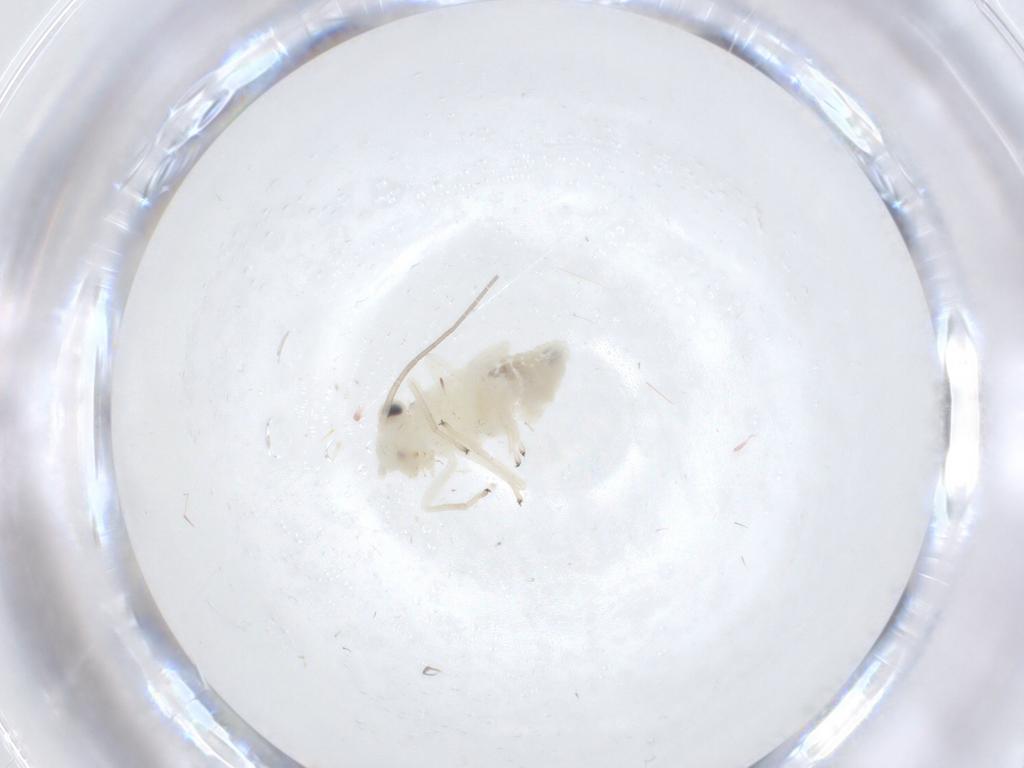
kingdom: Animalia
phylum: Arthropoda
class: Insecta
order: Psocodea
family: Caeciliusidae
